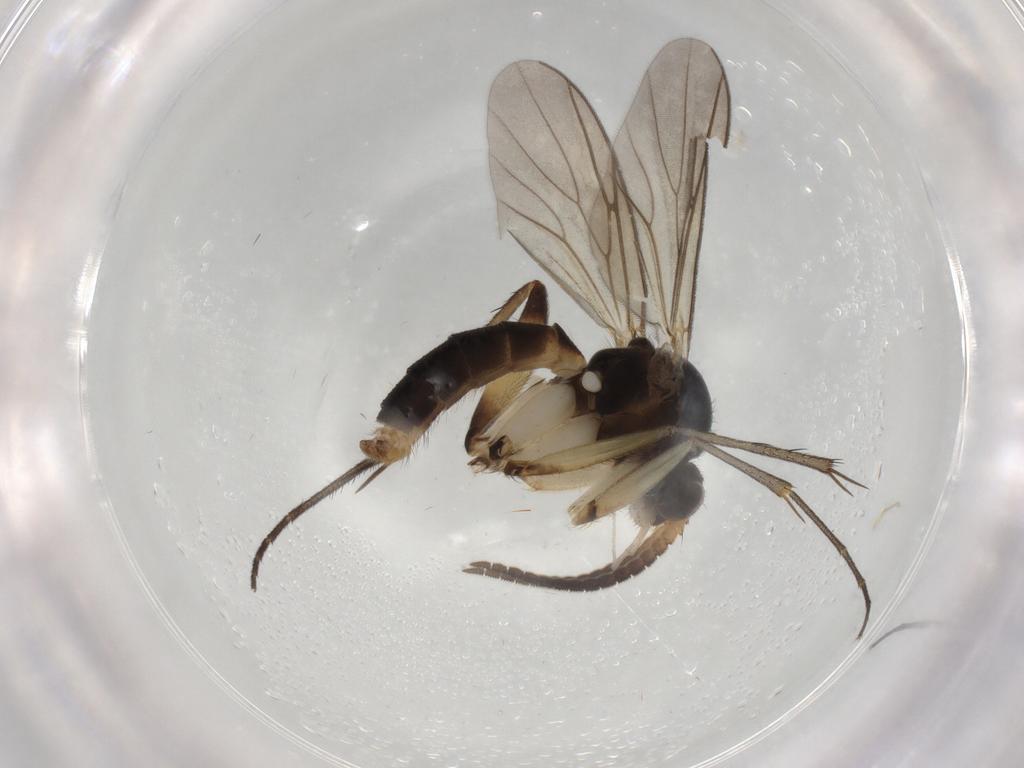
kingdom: Animalia
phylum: Arthropoda
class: Insecta
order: Diptera
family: Mycetophilidae
